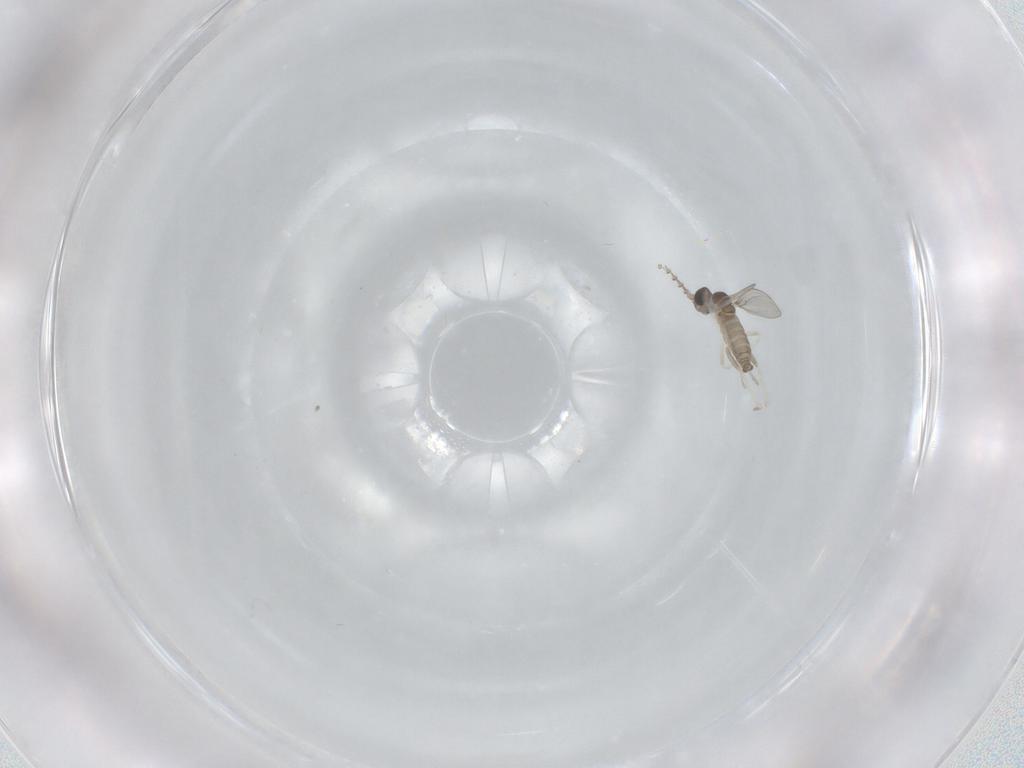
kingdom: Animalia
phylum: Arthropoda
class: Insecta
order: Diptera
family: Cecidomyiidae
